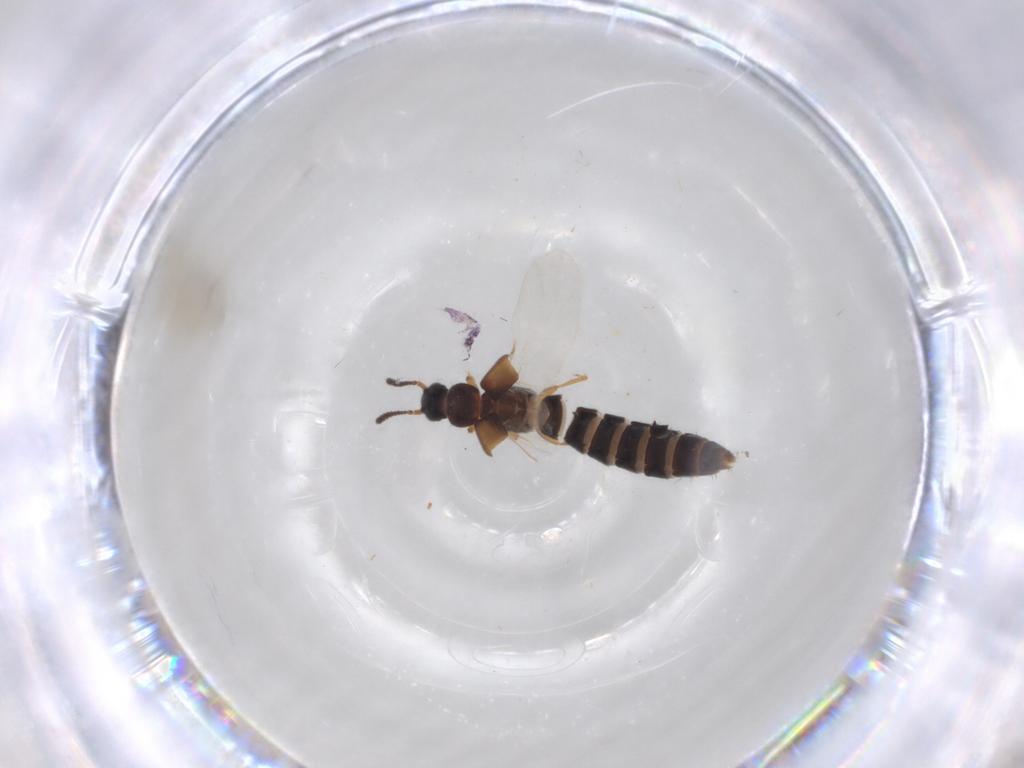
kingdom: Animalia
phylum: Arthropoda
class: Insecta
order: Coleoptera
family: Staphylinidae
